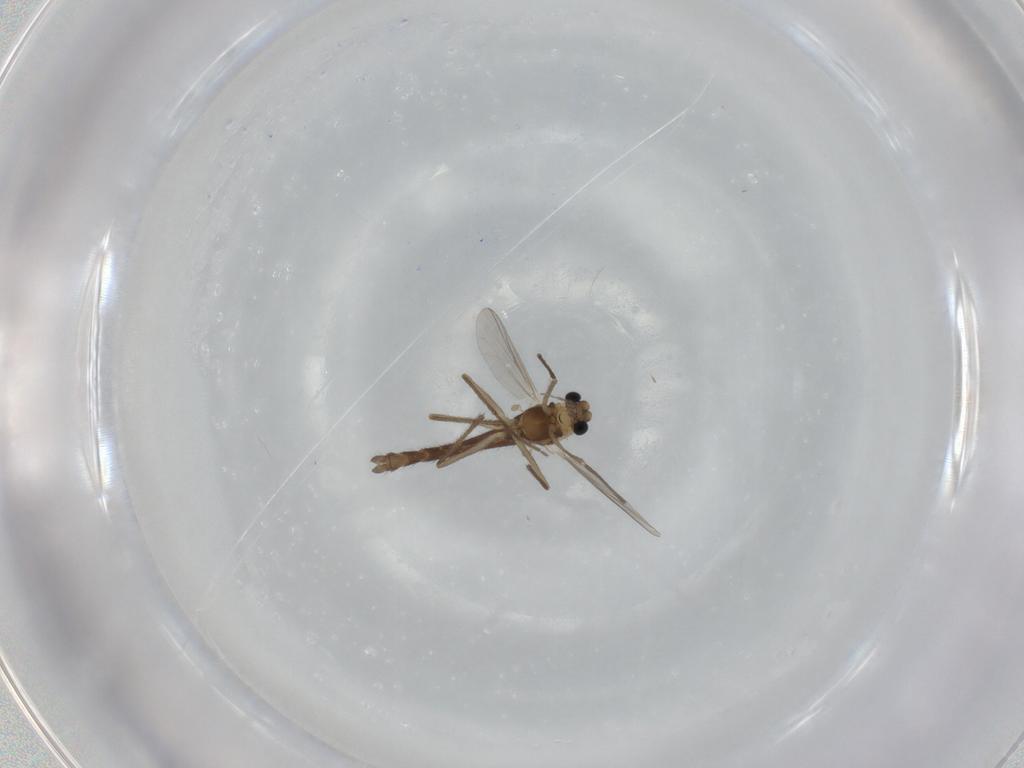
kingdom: Animalia
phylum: Arthropoda
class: Insecta
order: Diptera
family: Chironomidae
